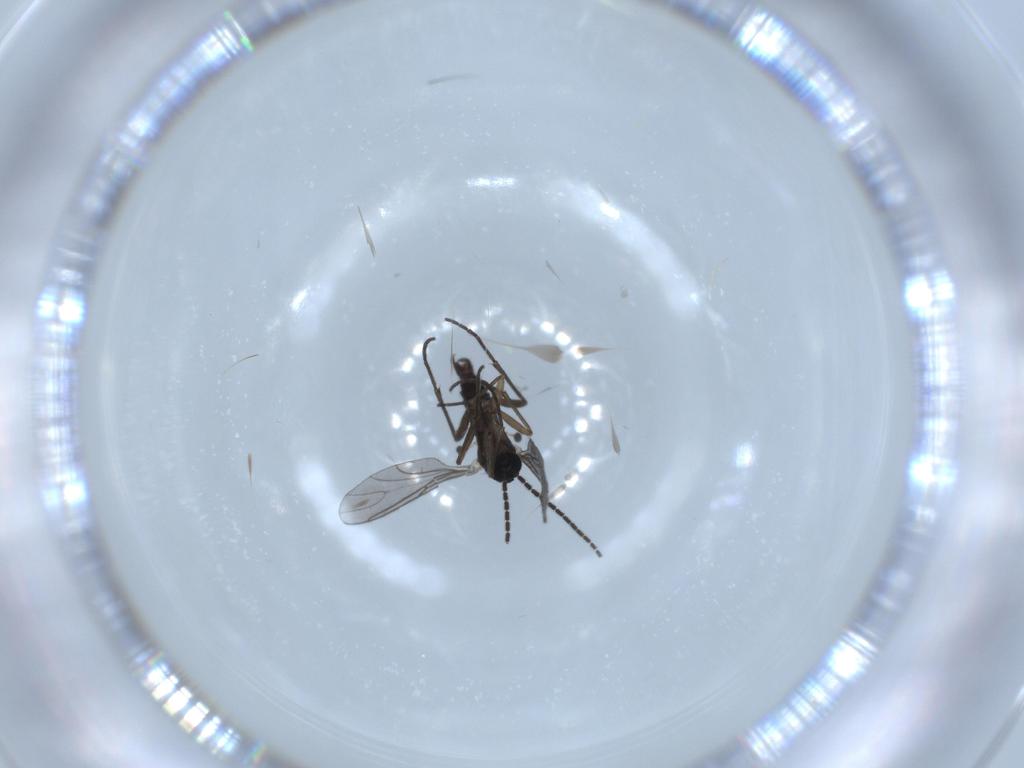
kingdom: Animalia
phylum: Arthropoda
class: Insecta
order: Diptera
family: Sciaridae
